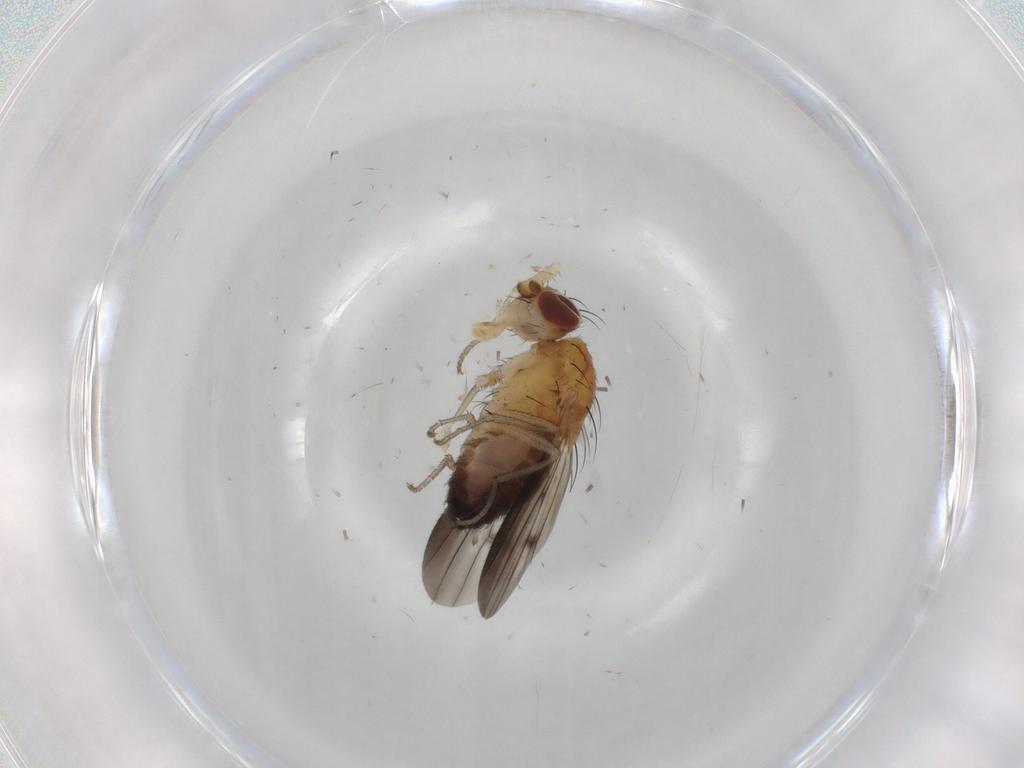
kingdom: Animalia
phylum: Arthropoda
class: Insecta
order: Diptera
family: Heleomyzidae
